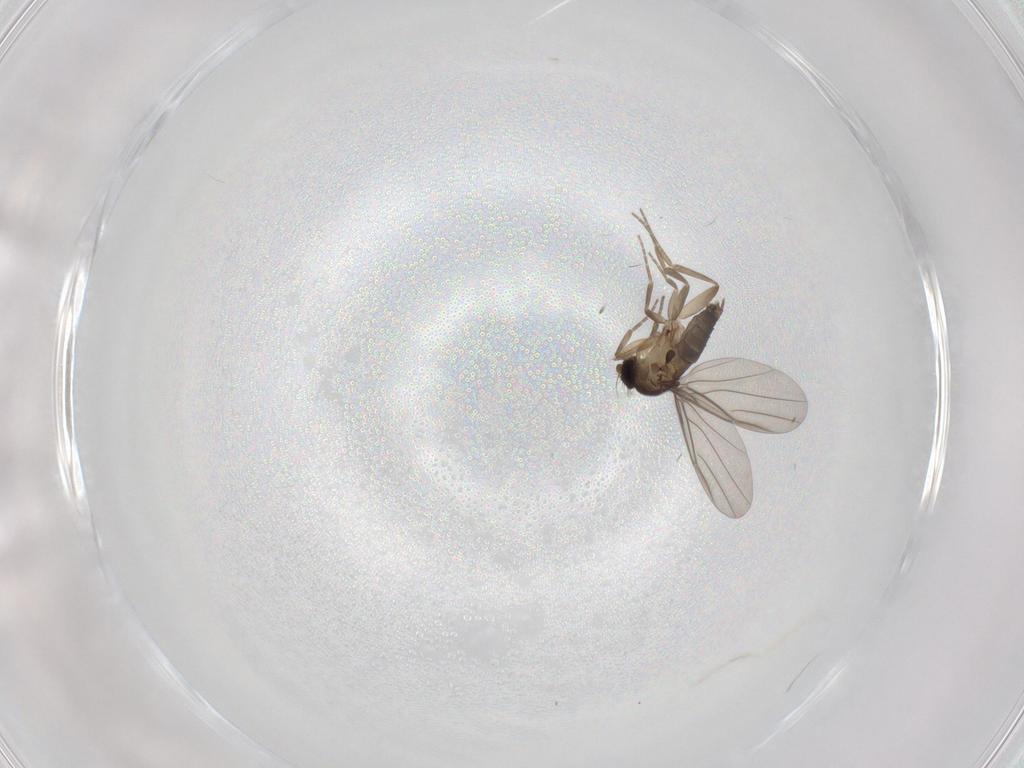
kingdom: Animalia
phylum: Arthropoda
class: Insecta
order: Diptera
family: Phoridae
